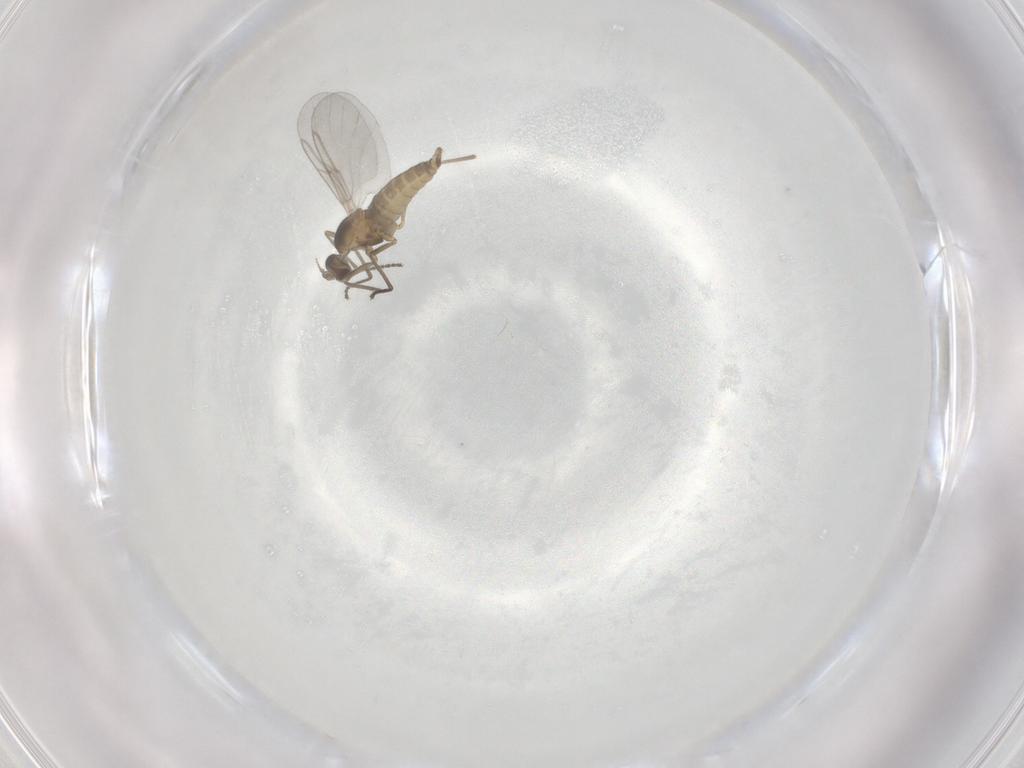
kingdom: Animalia
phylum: Arthropoda
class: Insecta
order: Diptera
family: Cecidomyiidae
